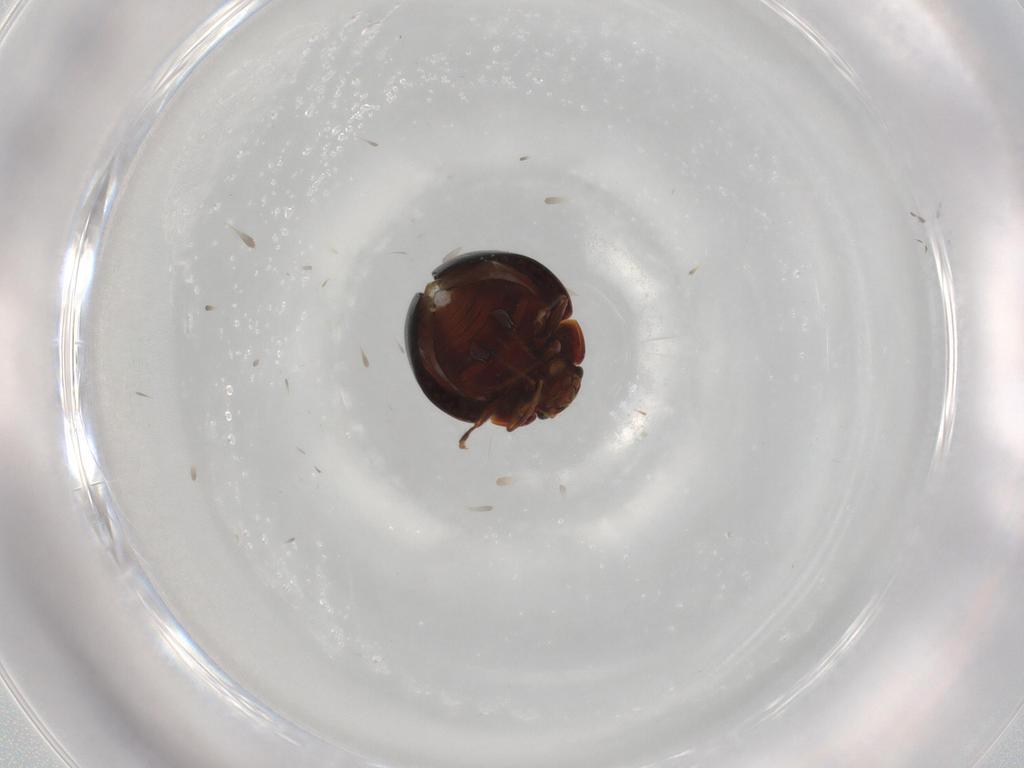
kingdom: Animalia
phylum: Arthropoda
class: Insecta
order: Coleoptera
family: Anamorphidae
